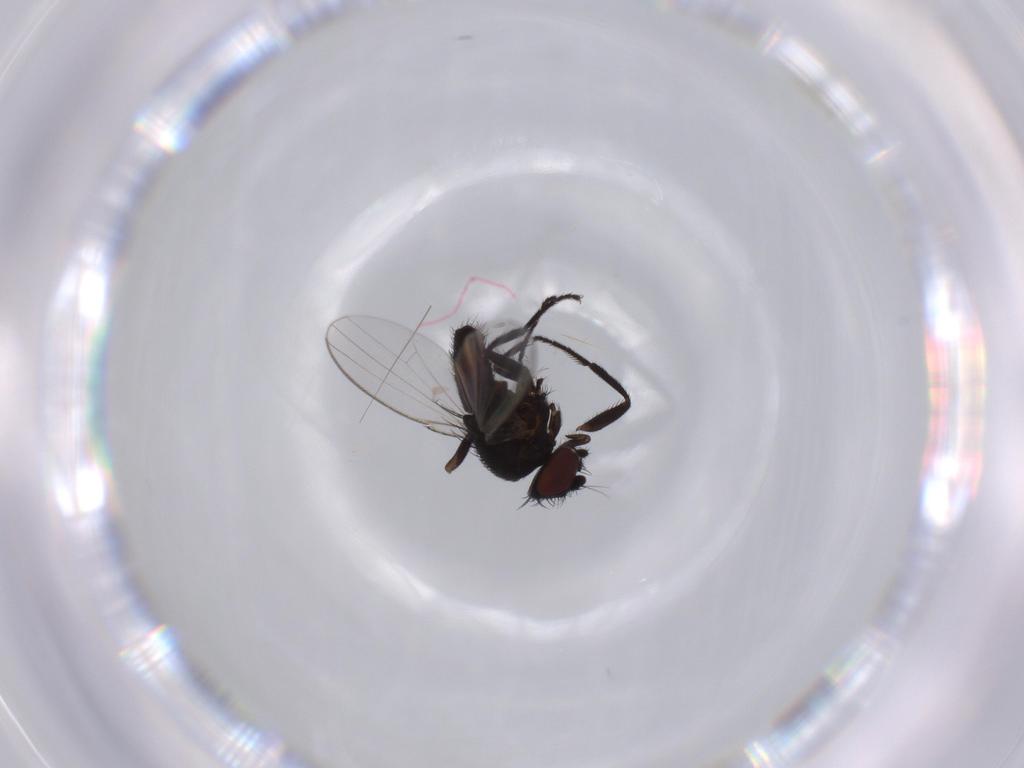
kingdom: Animalia
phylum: Arthropoda
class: Insecta
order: Diptera
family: Milichiidae
